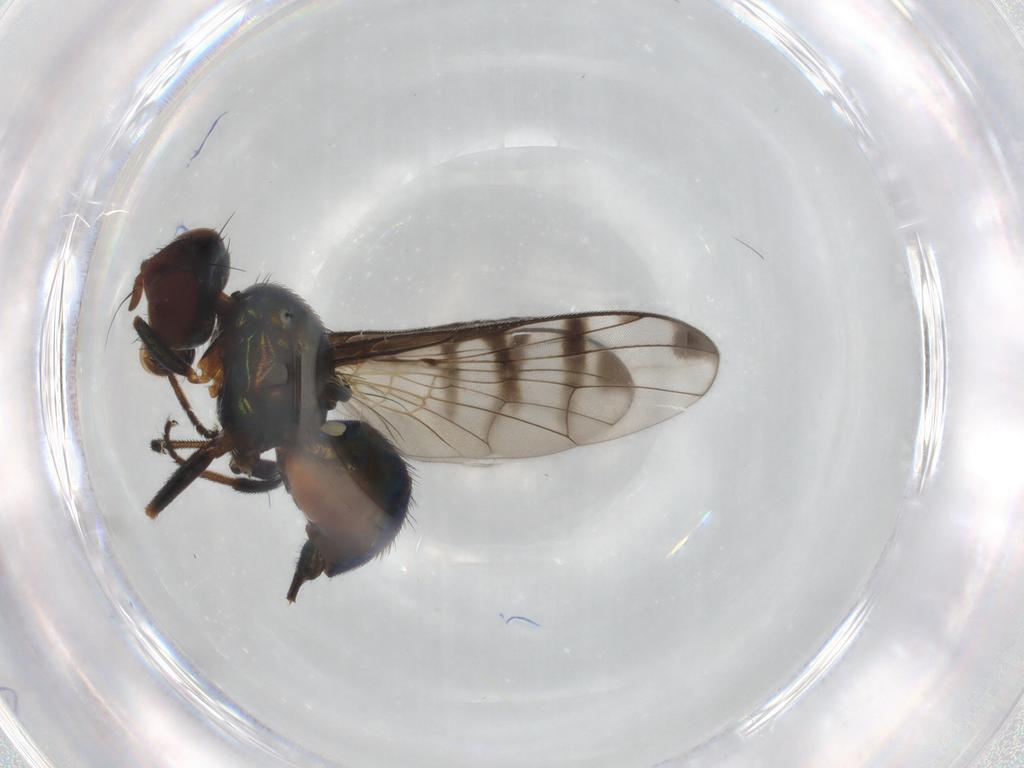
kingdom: Animalia
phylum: Arthropoda
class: Insecta
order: Diptera
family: Platystomatidae
